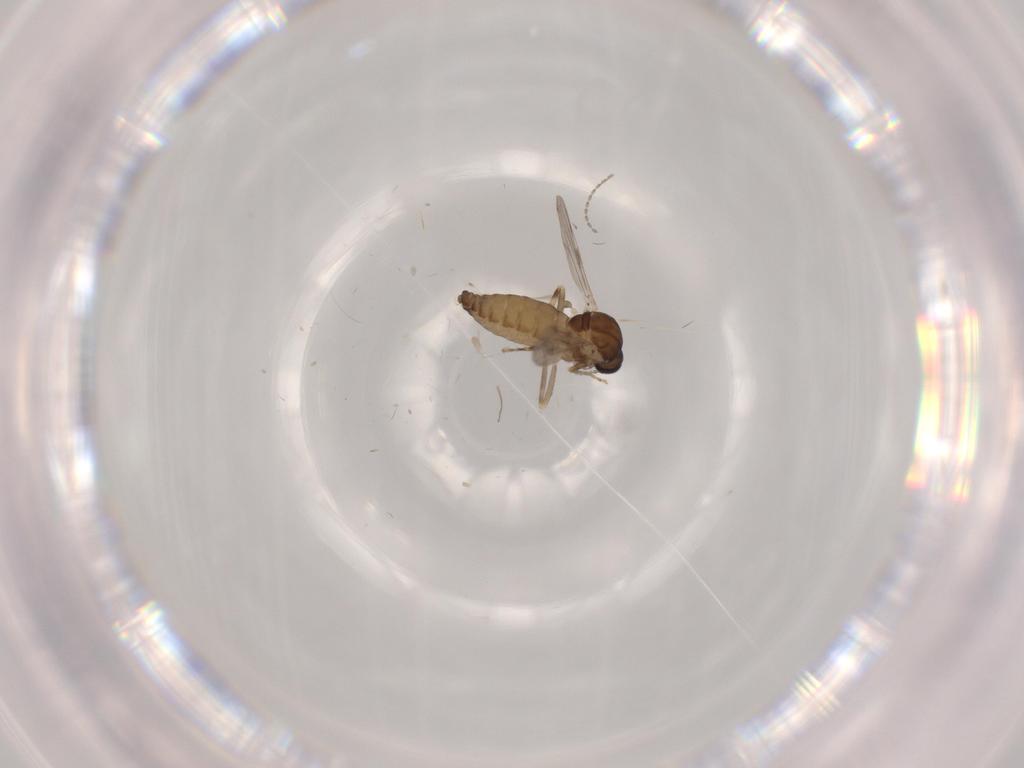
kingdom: Animalia
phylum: Arthropoda
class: Insecta
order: Diptera
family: Ceratopogonidae
